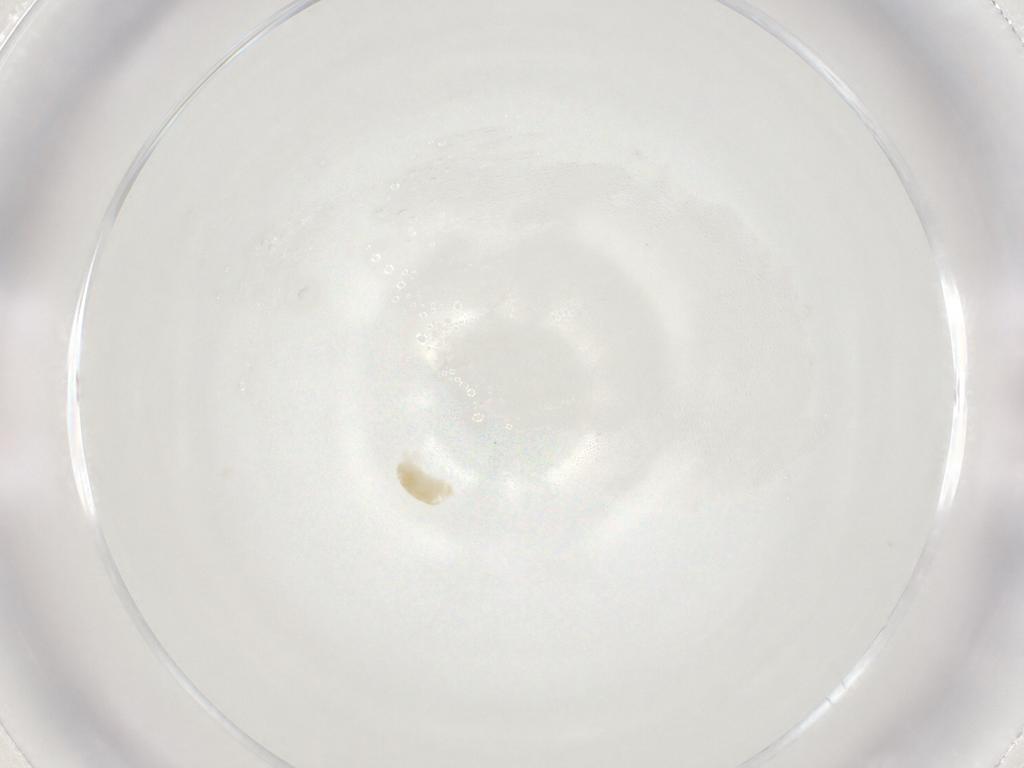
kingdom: Animalia
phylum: Arthropoda
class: Arachnida
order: Trombidiformes
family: Eupodidae
